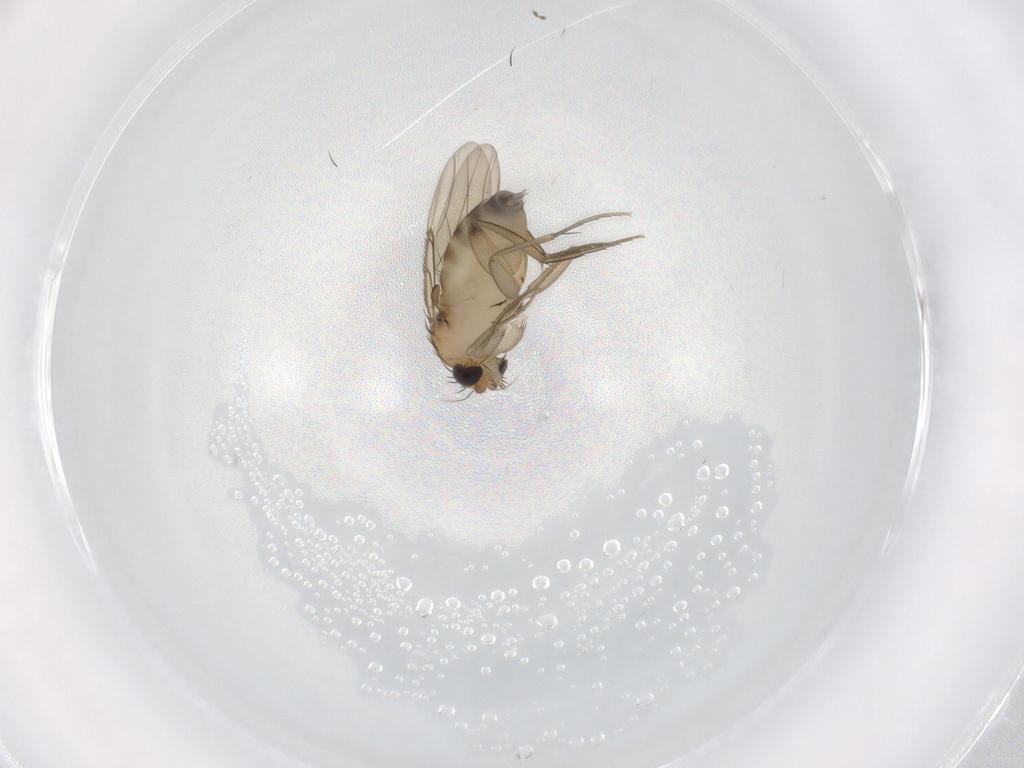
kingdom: Animalia
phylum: Arthropoda
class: Insecta
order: Diptera
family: Phoridae
